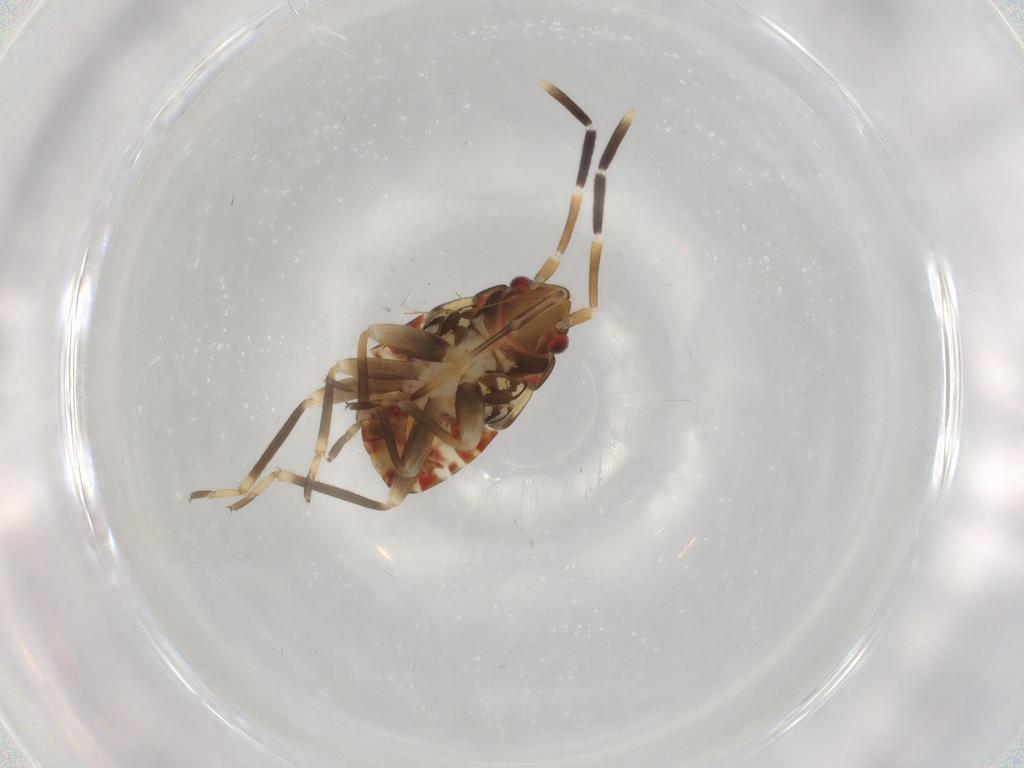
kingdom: Animalia
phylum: Arthropoda
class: Insecta
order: Hemiptera
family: Rhyparochromidae
